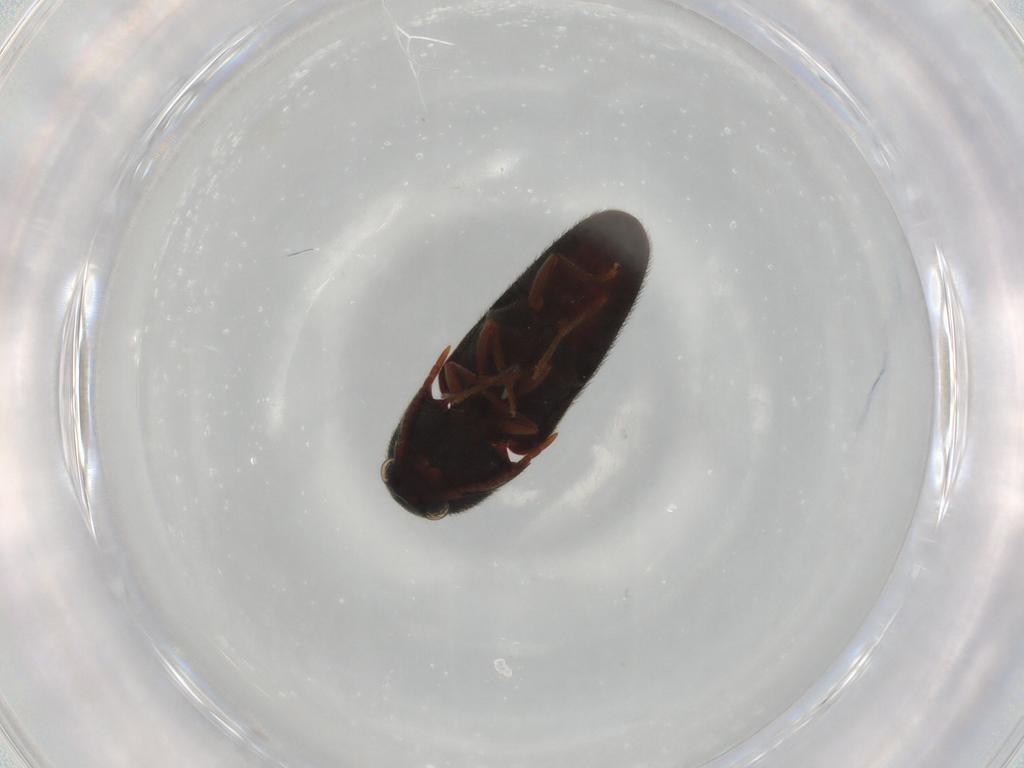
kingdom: Animalia
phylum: Arthropoda
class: Insecta
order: Coleoptera
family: Eucnemidae
